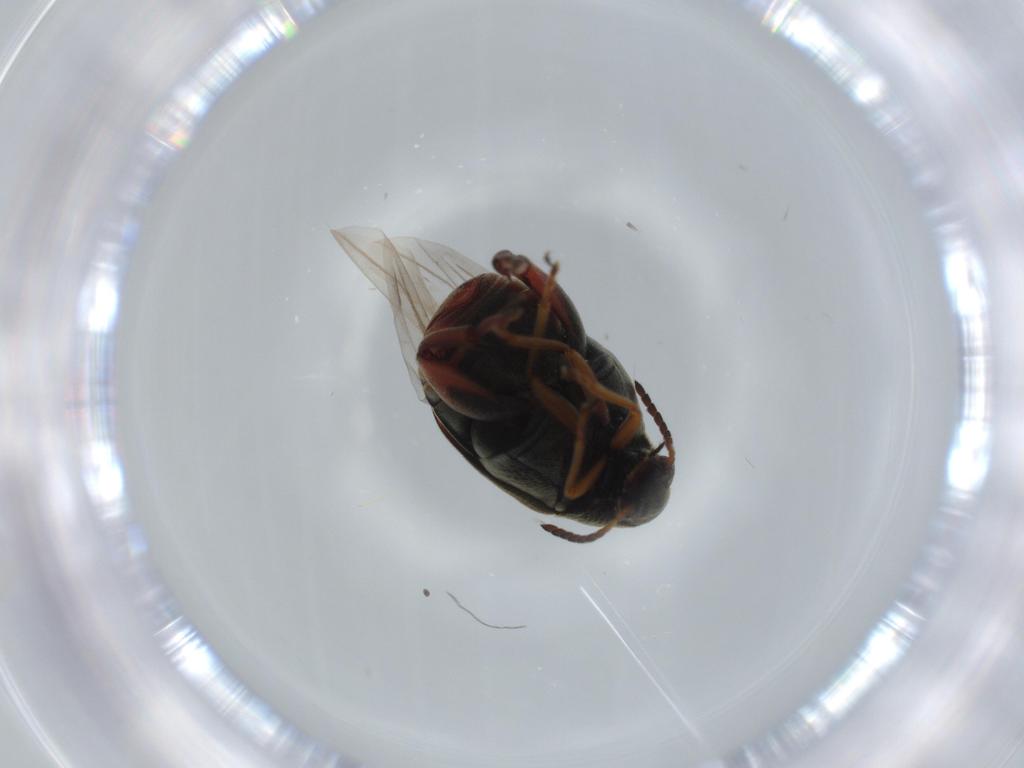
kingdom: Animalia
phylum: Arthropoda
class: Insecta
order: Coleoptera
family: Chrysomelidae
